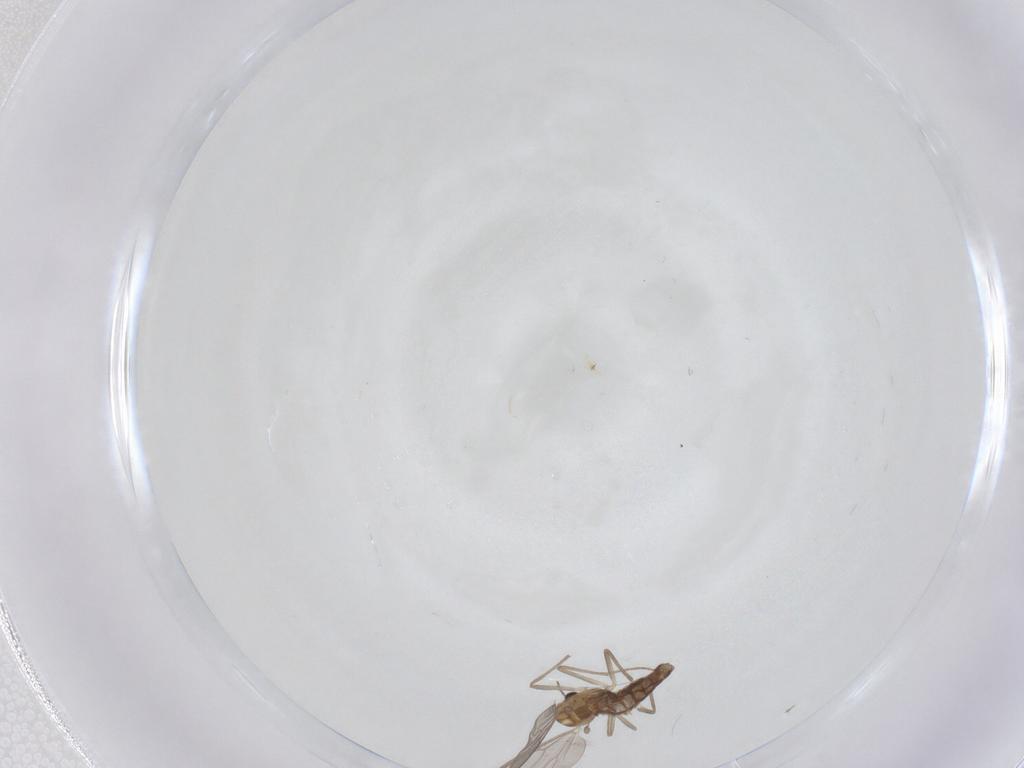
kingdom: Animalia
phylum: Arthropoda
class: Insecta
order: Diptera
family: Chironomidae
